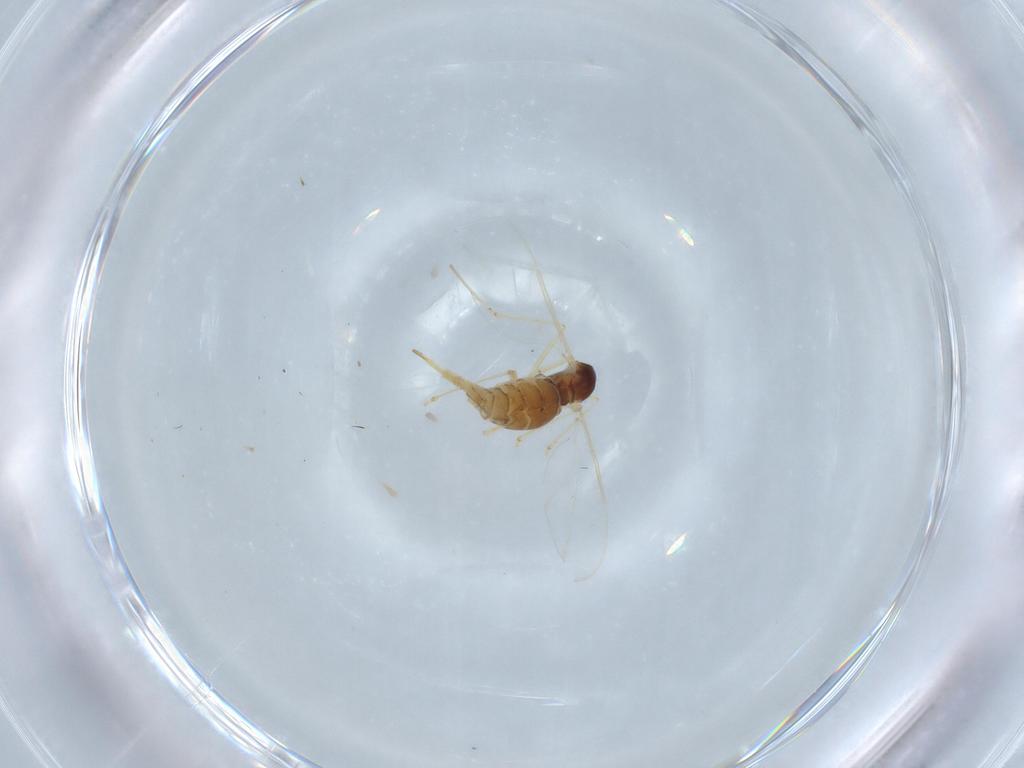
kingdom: Animalia
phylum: Arthropoda
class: Insecta
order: Diptera
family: Cecidomyiidae
